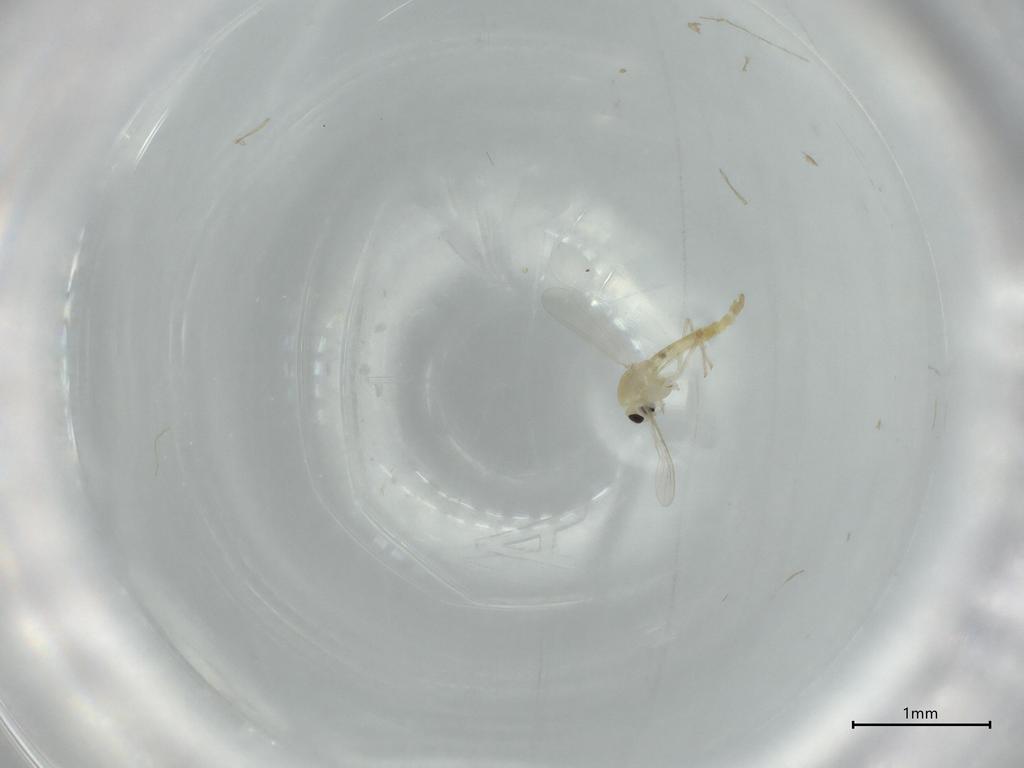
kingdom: Animalia
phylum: Arthropoda
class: Insecta
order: Diptera
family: Chironomidae
